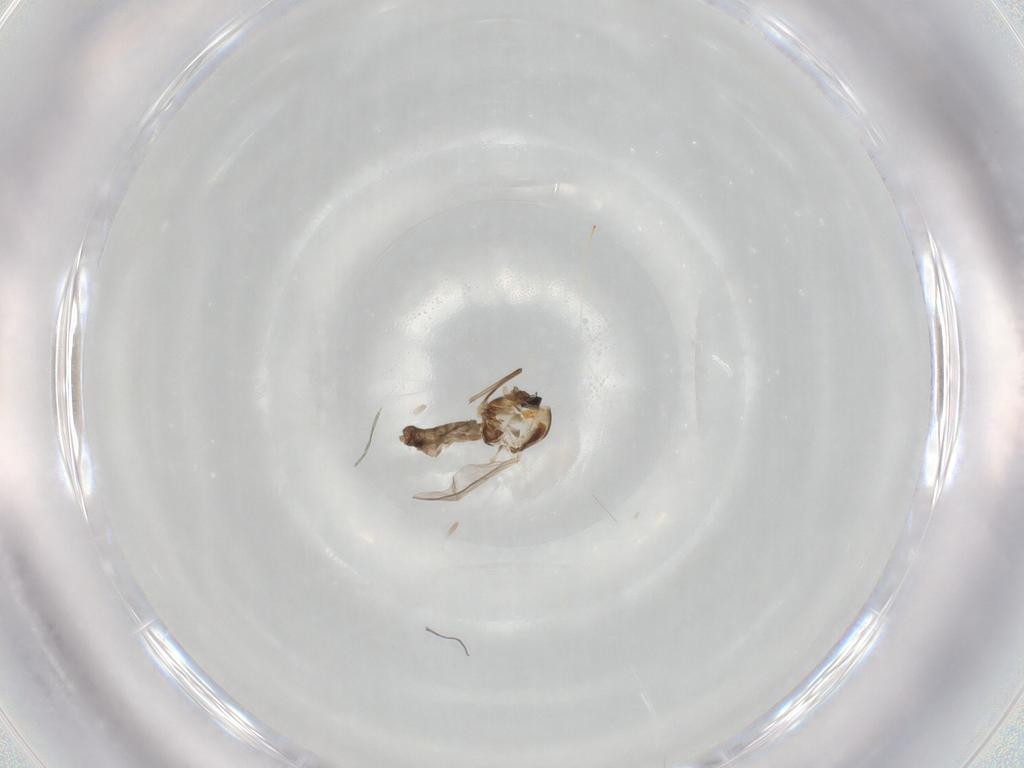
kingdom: Animalia
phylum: Arthropoda
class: Insecta
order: Diptera
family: Chironomidae
